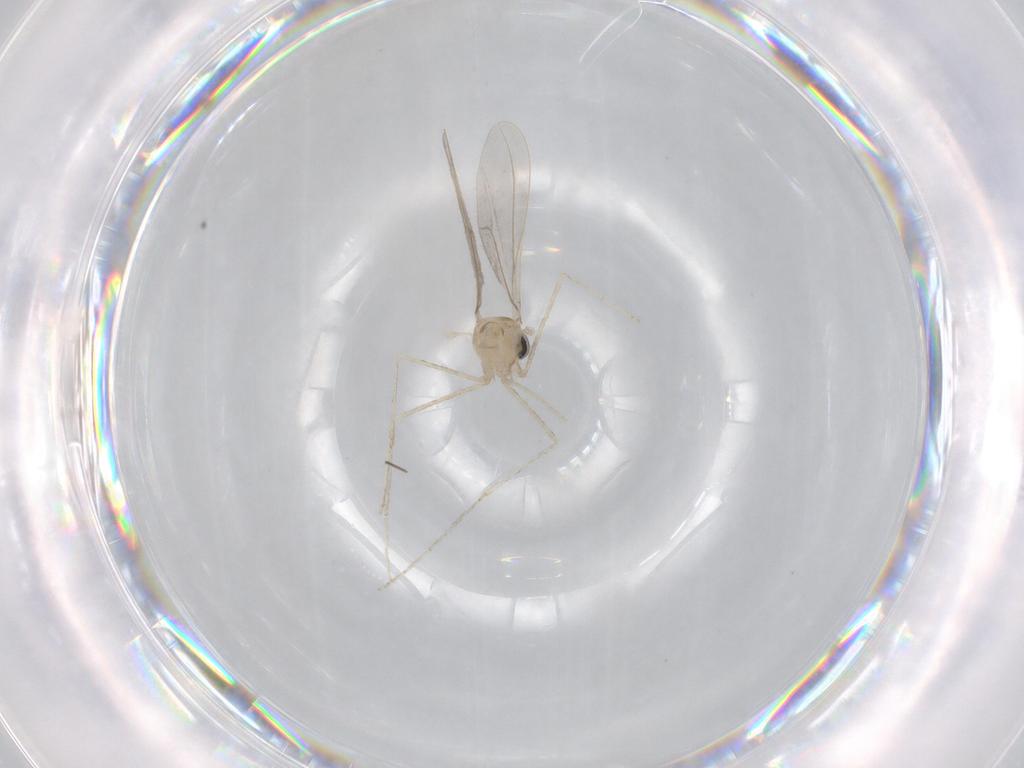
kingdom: Animalia
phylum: Arthropoda
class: Insecta
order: Diptera
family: Cecidomyiidae
